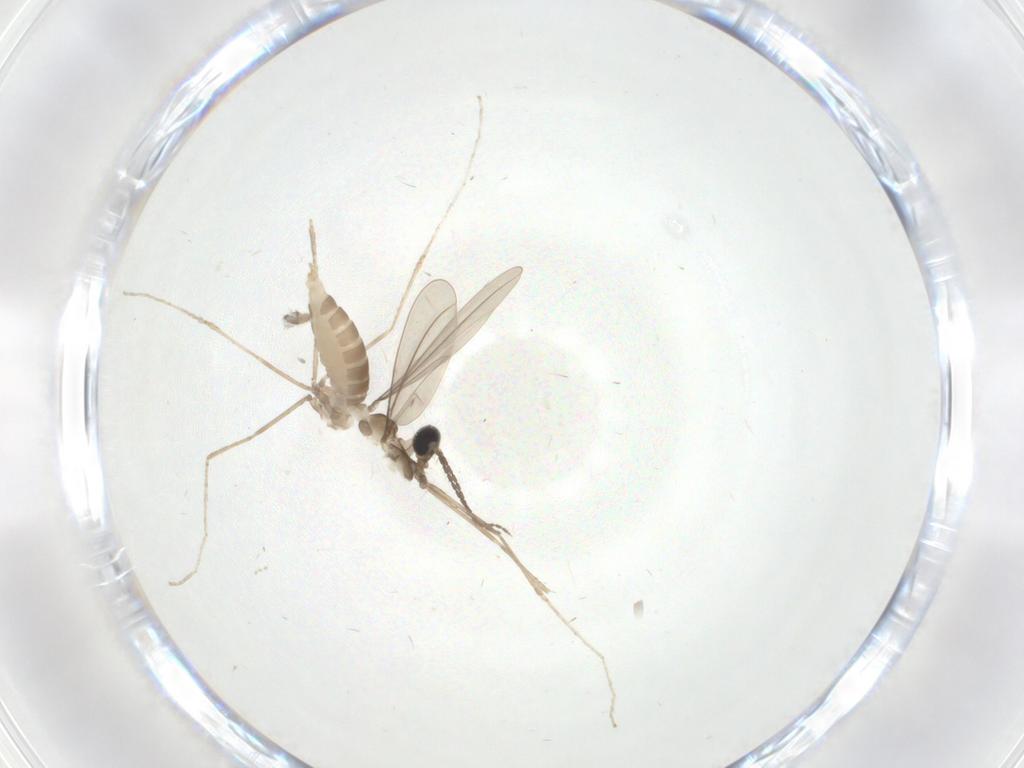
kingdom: Animalia
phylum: Arthropoda
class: Insecta
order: Diptera
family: Cecidomyiidae
